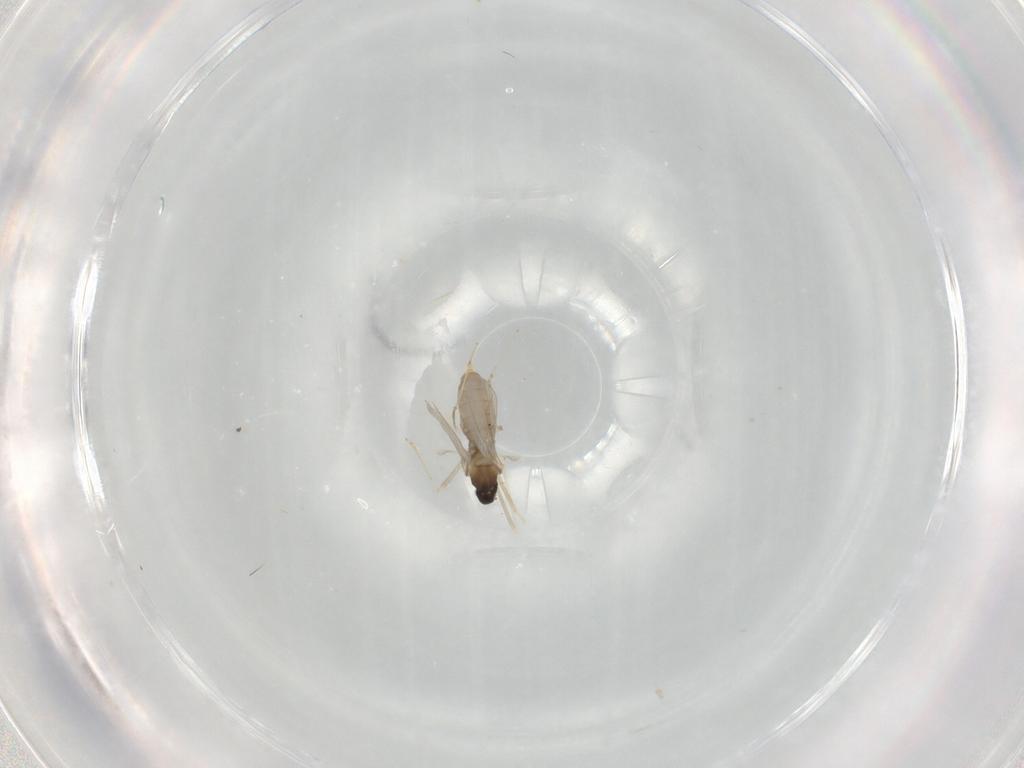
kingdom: Animalia
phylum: Arthropoda
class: Insecta
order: Diptera
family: Cecidomyiidae
